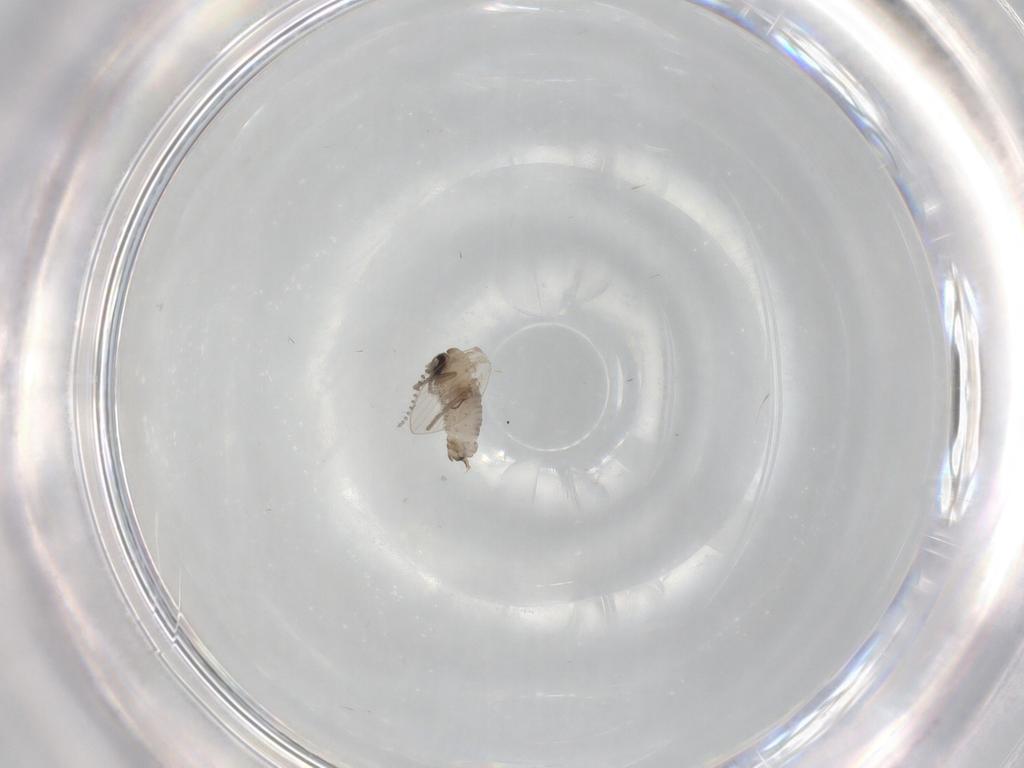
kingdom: Animalia
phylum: Arthropoda
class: Insecta
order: Diptera
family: Psychodidae
